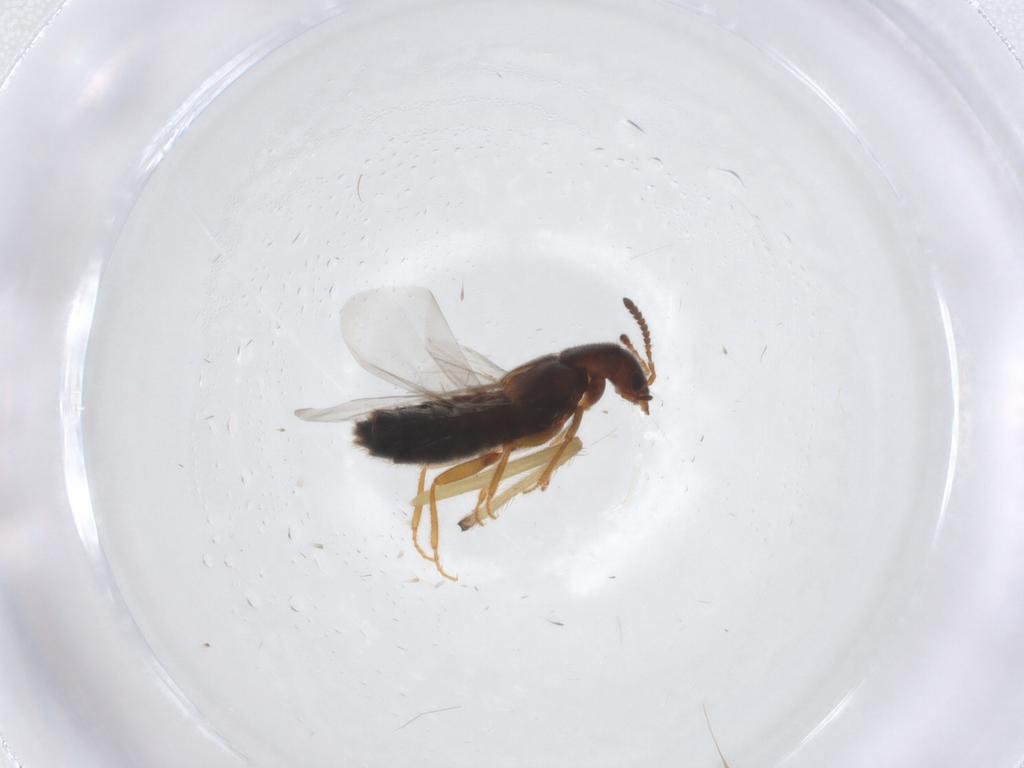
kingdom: Animalia
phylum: Arthropoda
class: Insecta
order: Coleoptera
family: Staphylinidae
